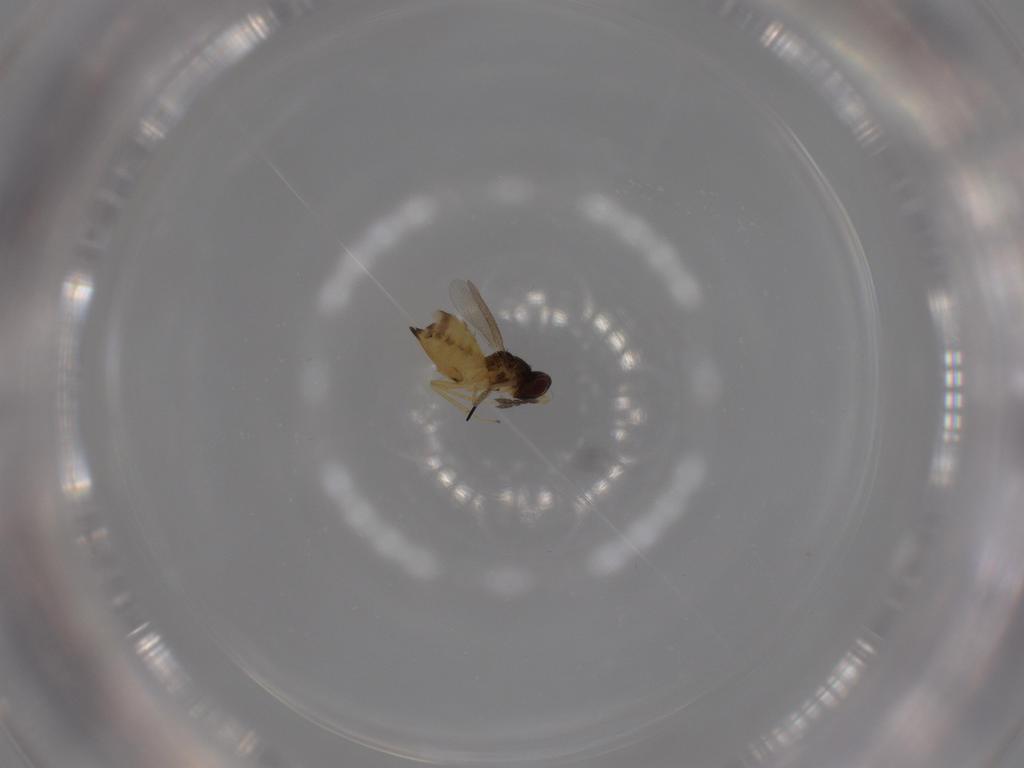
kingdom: Animalia
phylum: Arthropoda
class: Insecta
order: Hymenoptera
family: Eulophidae
